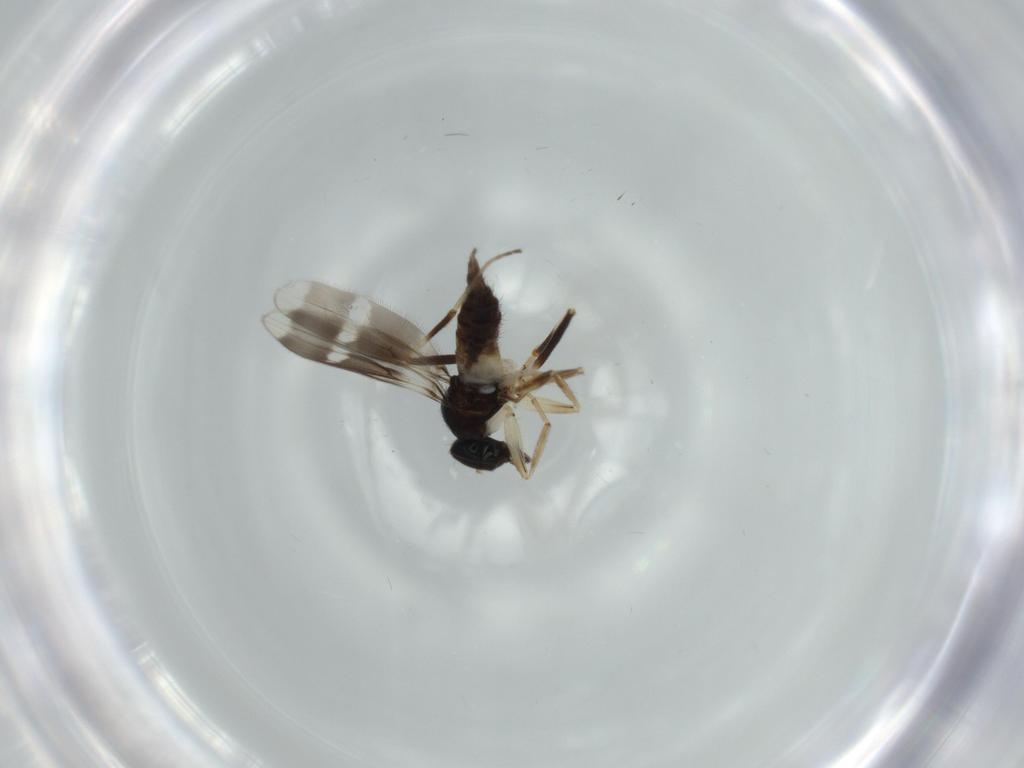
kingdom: Animalia
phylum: Arthropoda
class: Insecta
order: Diptera
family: Hybotidae
